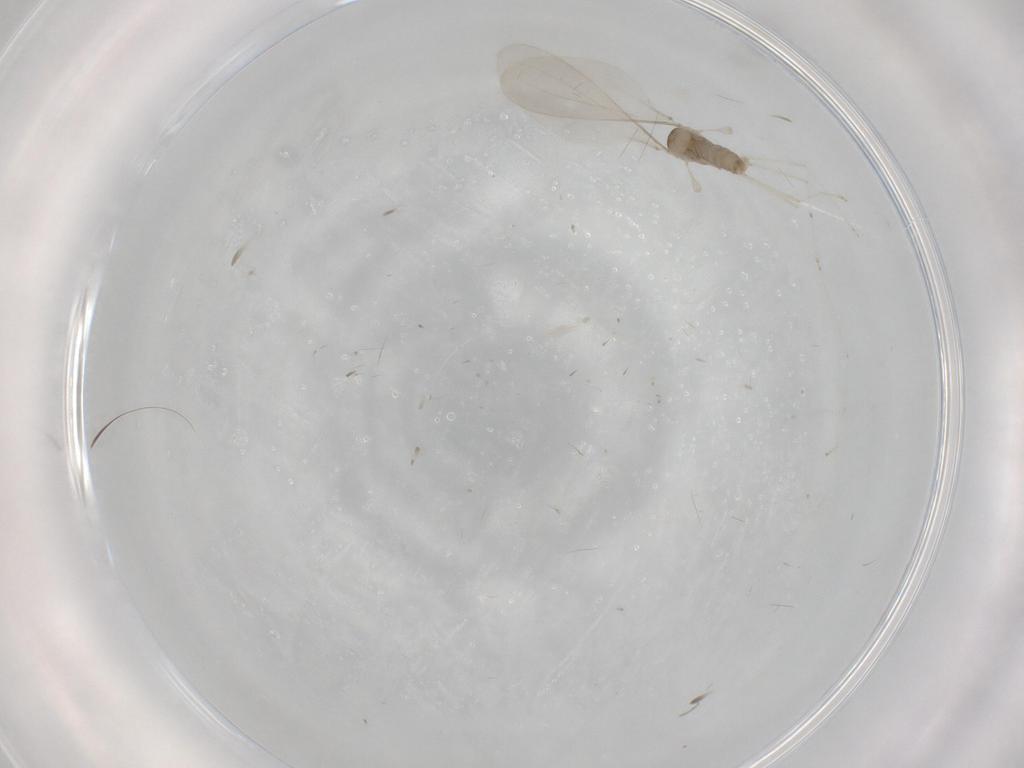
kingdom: Animalia
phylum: Arthropoda
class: Insecta
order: Diptera
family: Cecidomyiidae
